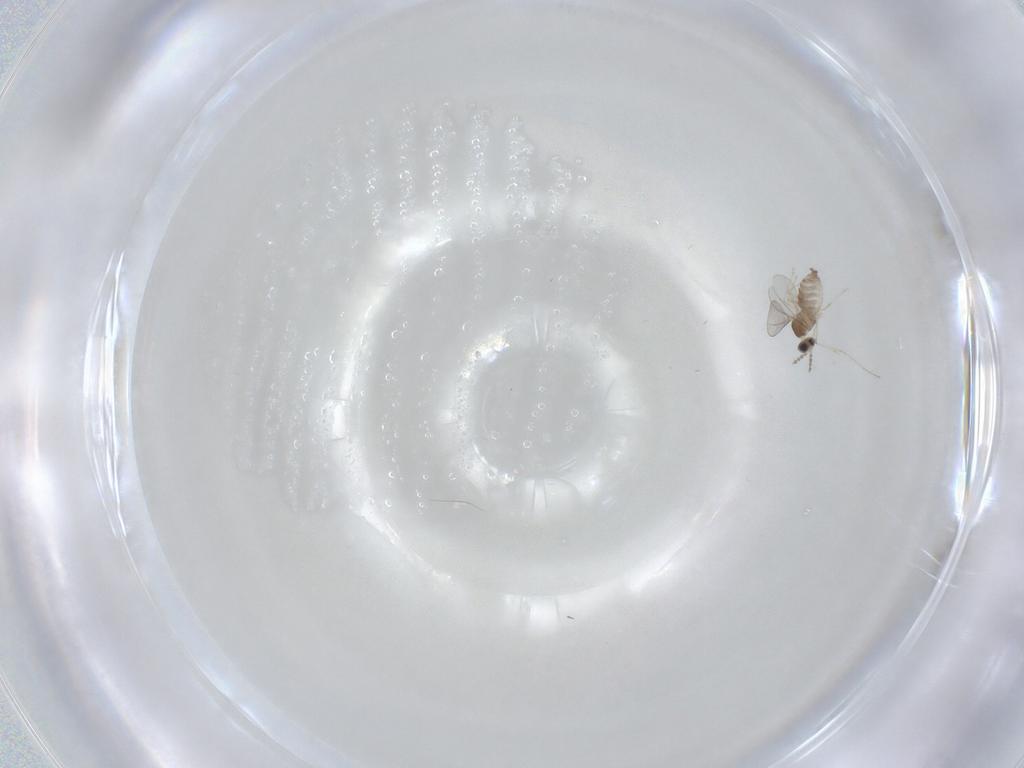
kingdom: Animalia
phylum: Arthropoda
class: Insecta
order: Diptera
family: Cecidomyiidae
